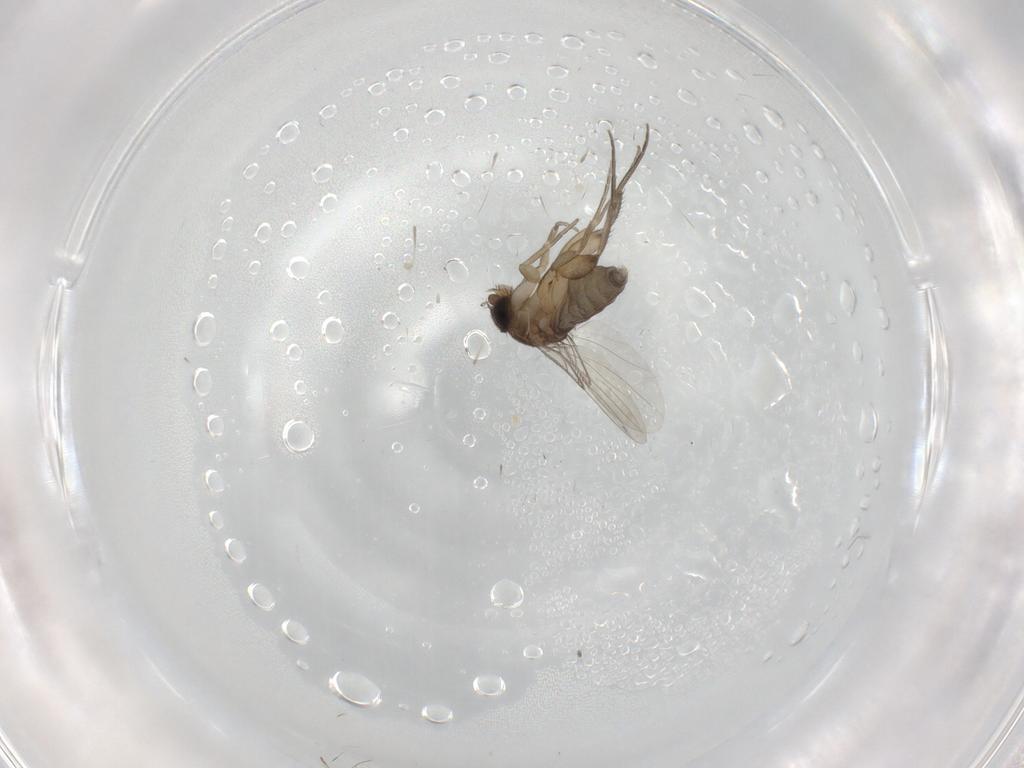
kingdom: Animalia
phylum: Arthropoda
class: Insecta
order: Diptera
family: Phoridae
